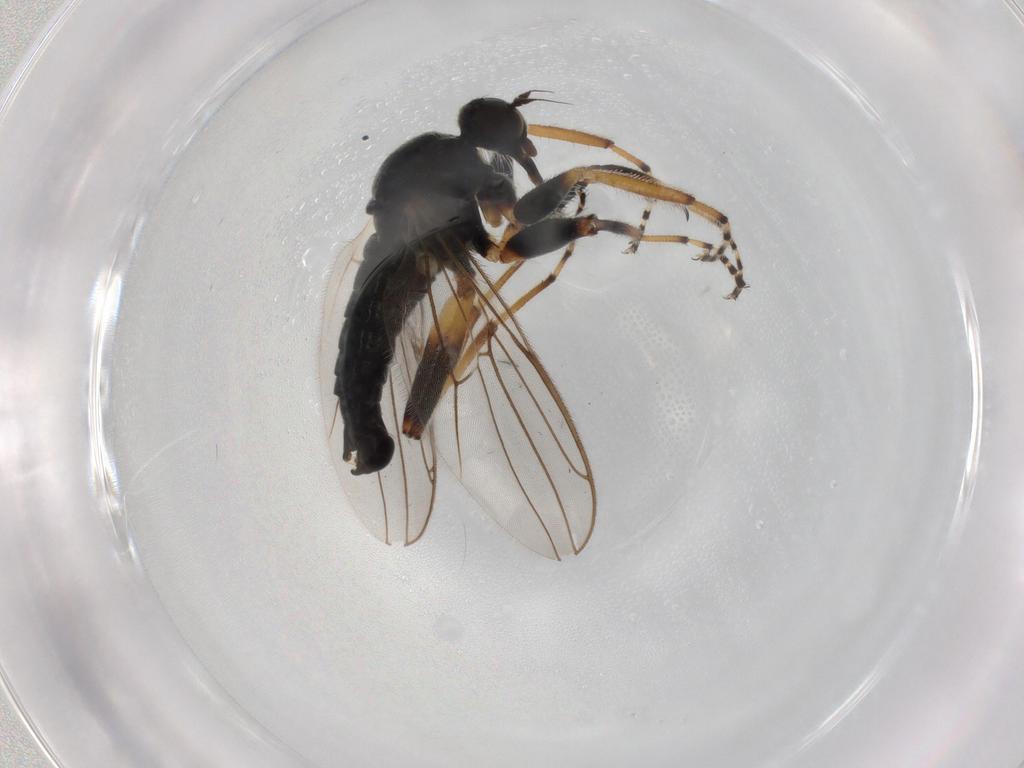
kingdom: Animalia
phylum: Arthropoda
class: Insecta
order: Diptera
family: Hybotidae
